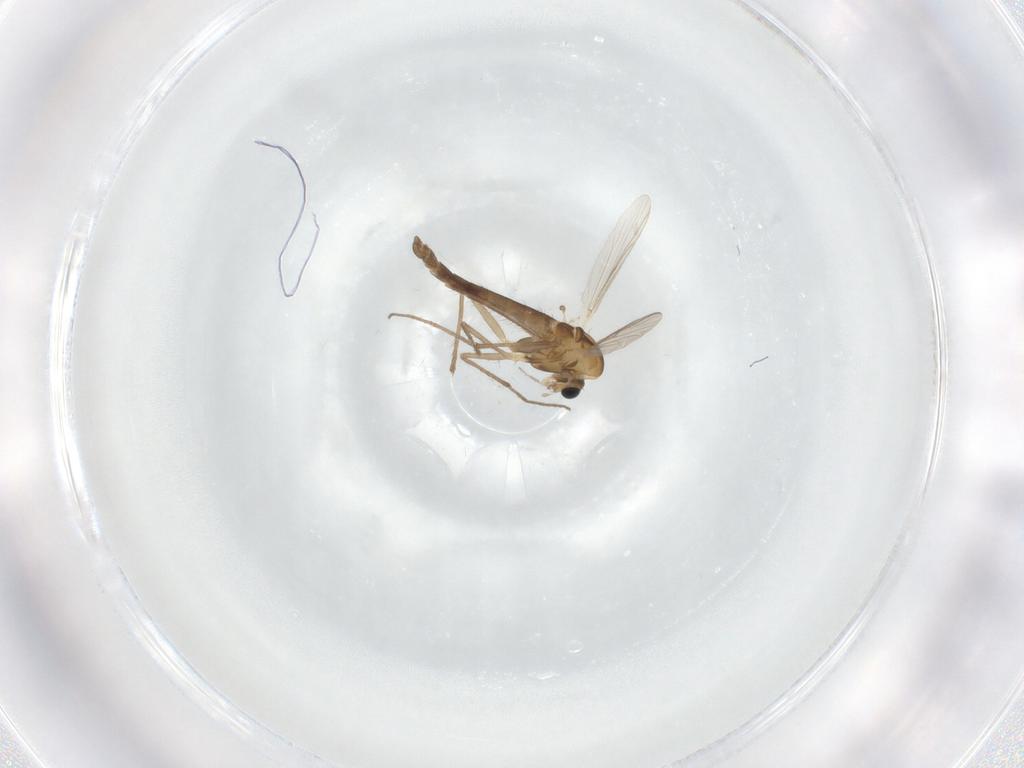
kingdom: Animalia
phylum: Arthropoda
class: Insecta
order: Diptera
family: Chironomidae
